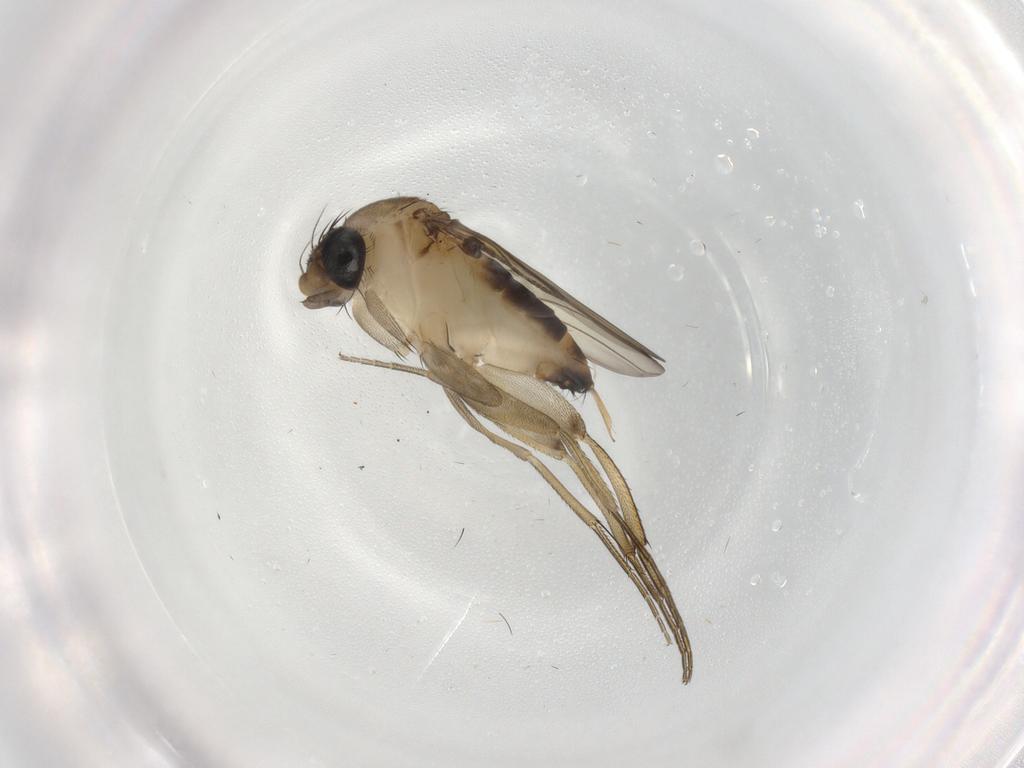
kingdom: Animalia
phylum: Arthropoda
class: Insecta
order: Diptera
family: Phoridae
